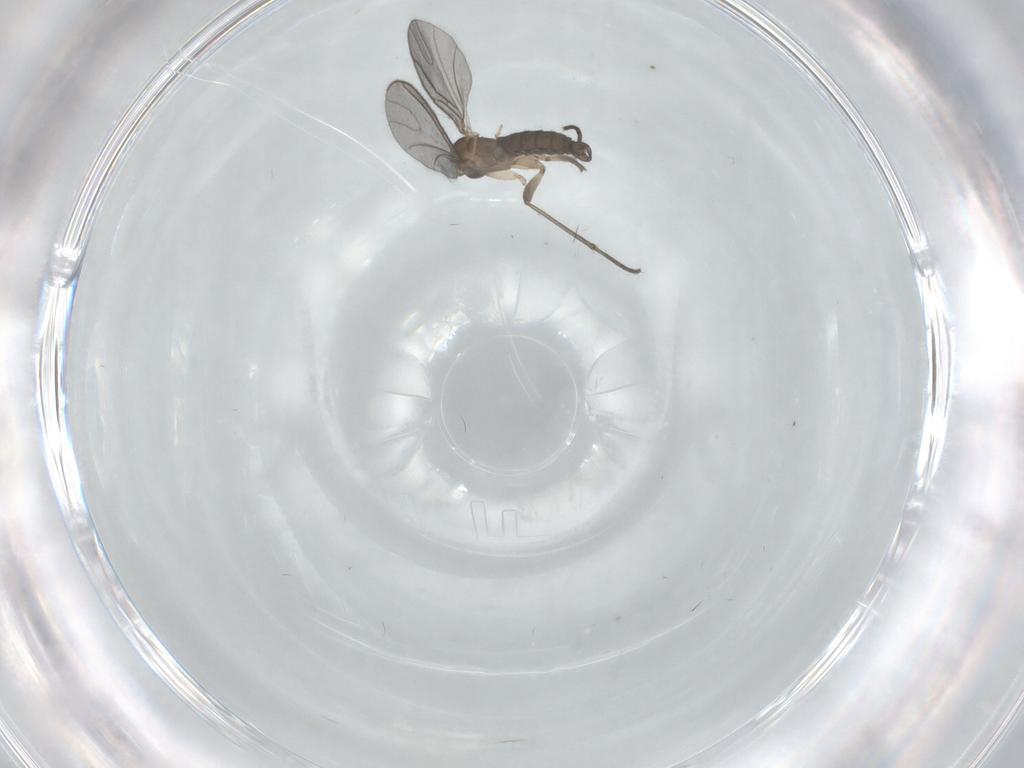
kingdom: Animalia
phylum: Arthropoda
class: Insecta
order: Diptera
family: Sciaridae
